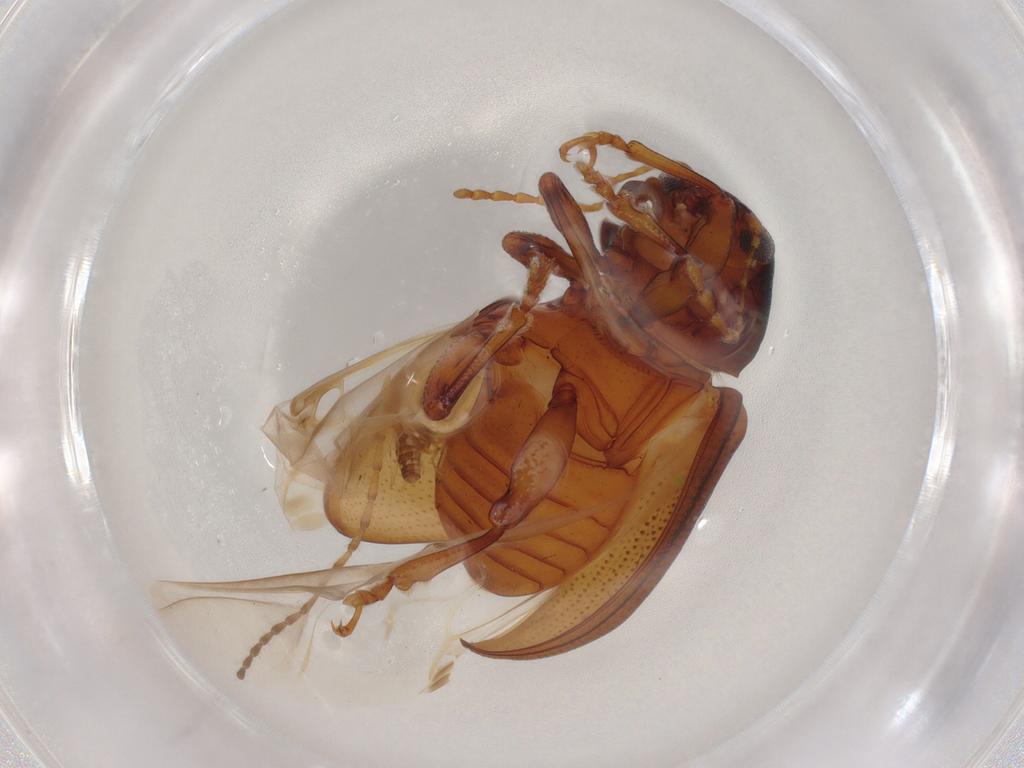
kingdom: Animalia
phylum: Arthropoda
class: Insecta
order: Coleoptera
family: Chrysomelidae
